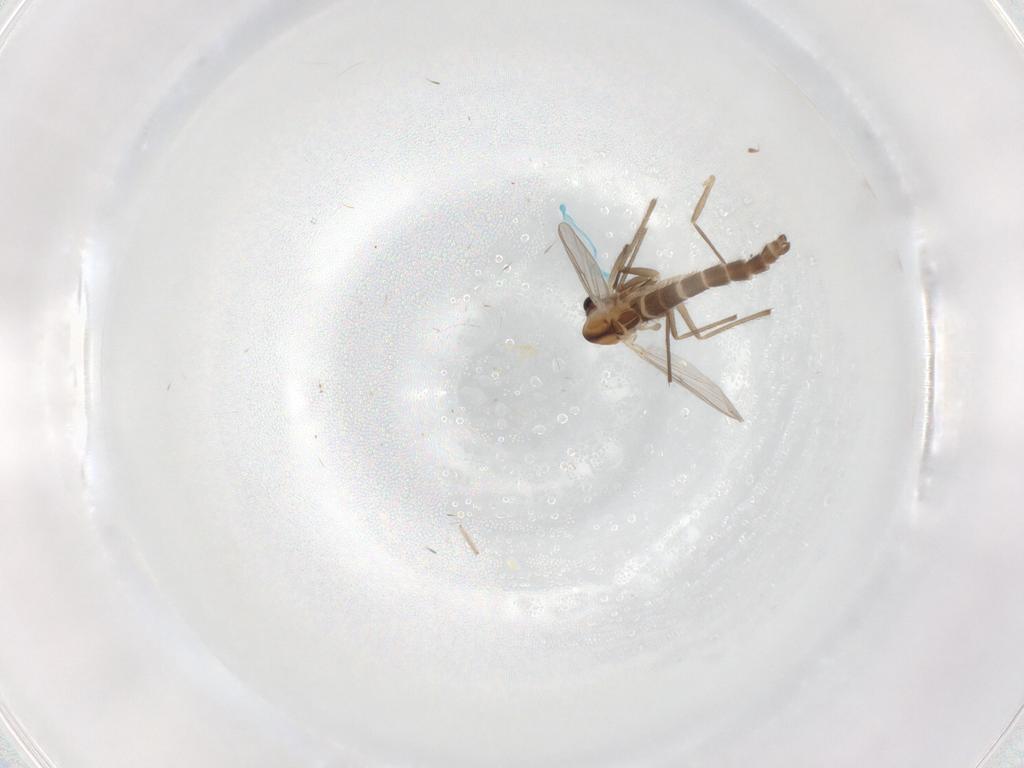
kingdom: Animalia
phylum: Arthropoda
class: Insecta
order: Diptera
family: Chironomidae
